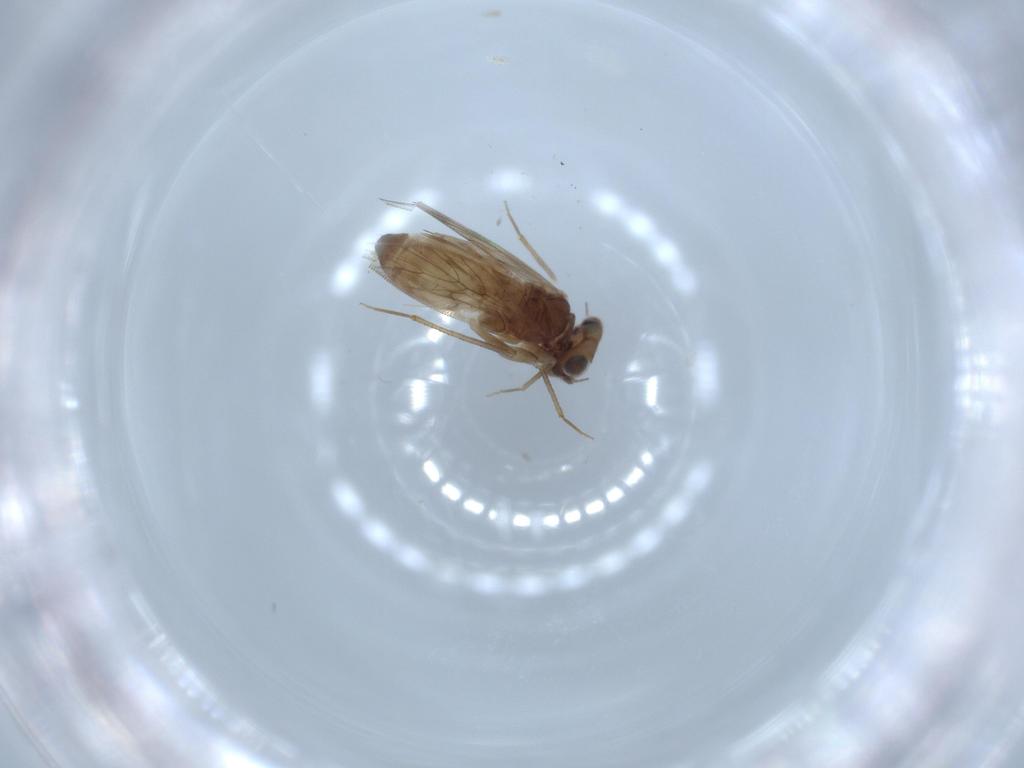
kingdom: Animalia
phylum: Arthropoda
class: Insecta
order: Psocodea
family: Lepidopsocidae
